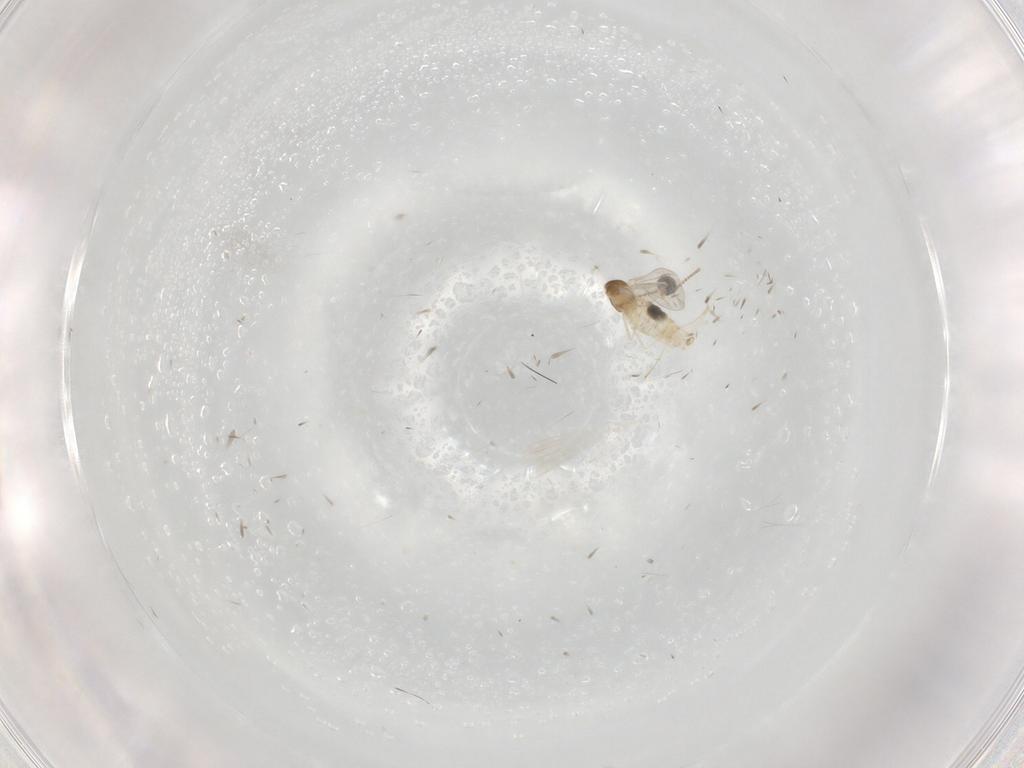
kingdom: Animalia
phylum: Arthropoda
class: Insecta
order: Diptera
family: Cecidomyiidae
